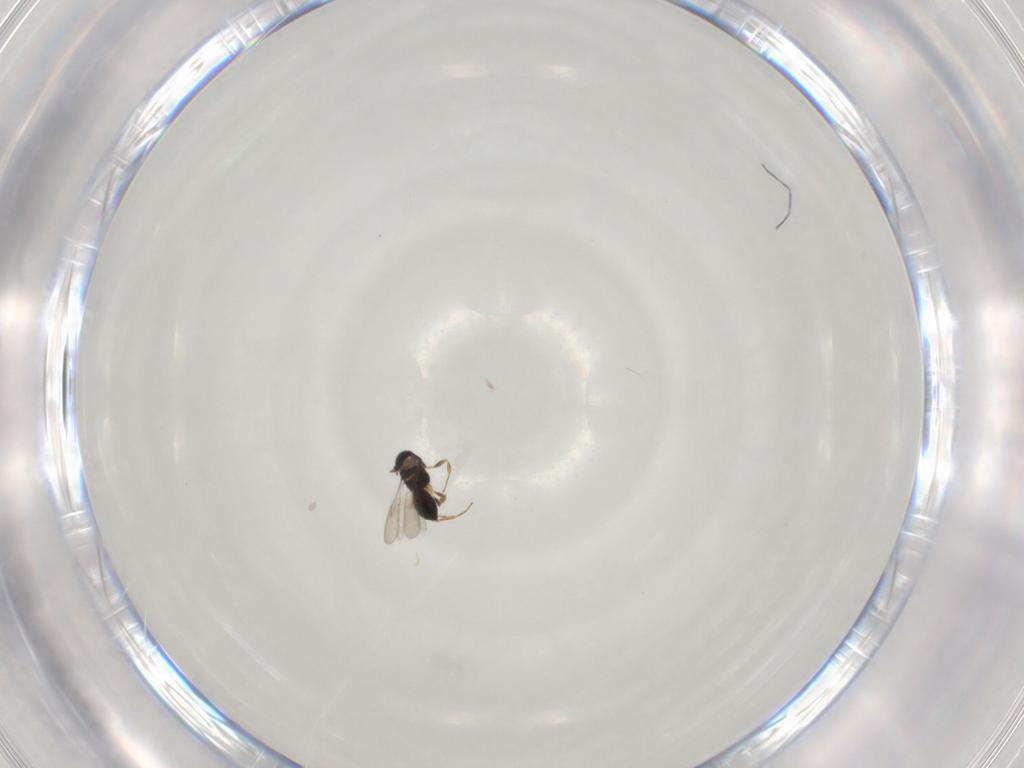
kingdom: Animalia
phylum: Arthropoda
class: Insecta
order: Hymenoptera
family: Scelionidae
